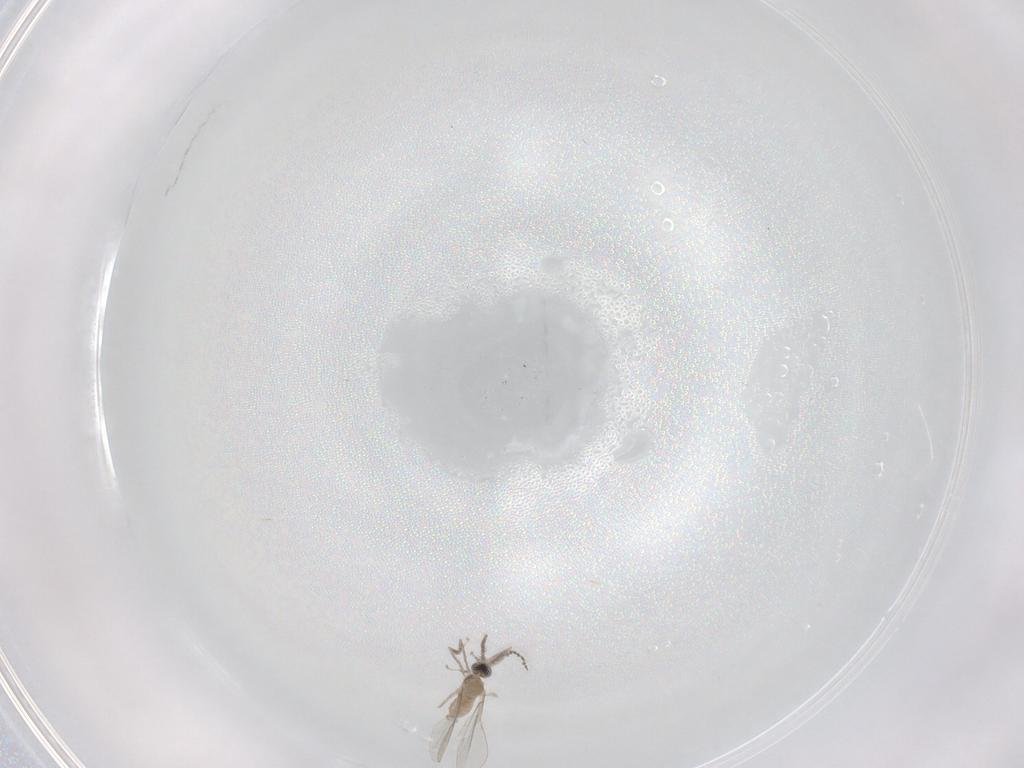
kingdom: Animalia
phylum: Arthropoda
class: Insecta
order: Diptera
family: Cecidomyiidae
